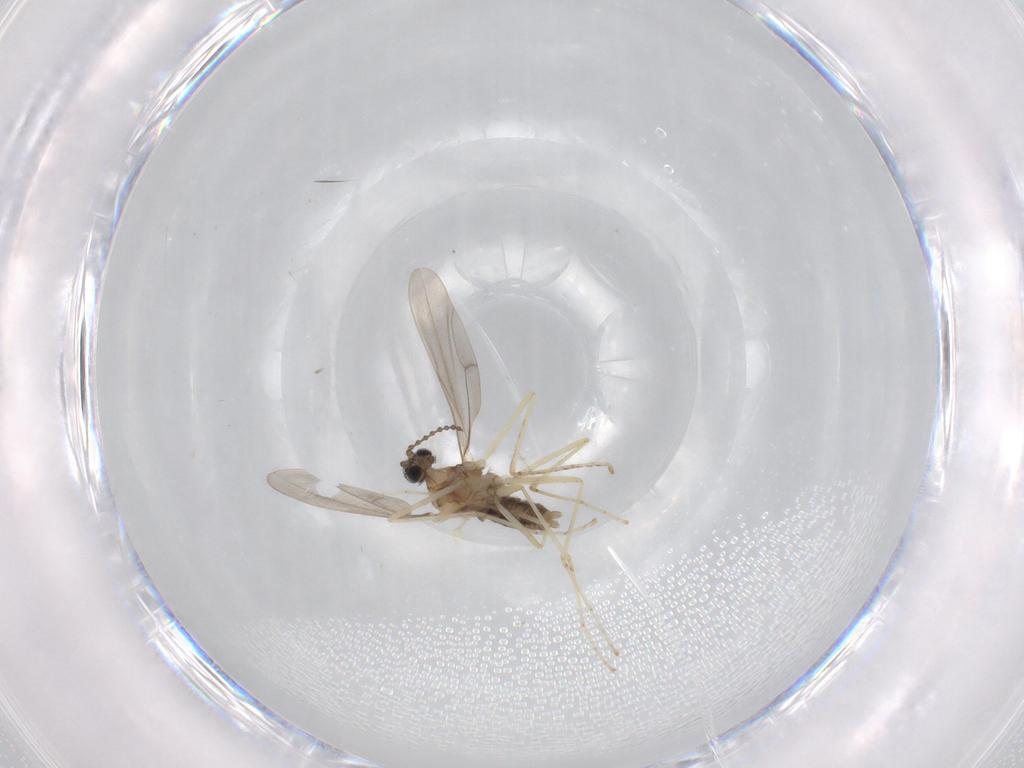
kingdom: Animalia
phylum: Arthropoda
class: Insecta
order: Diptera
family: Cecidomyiidae
